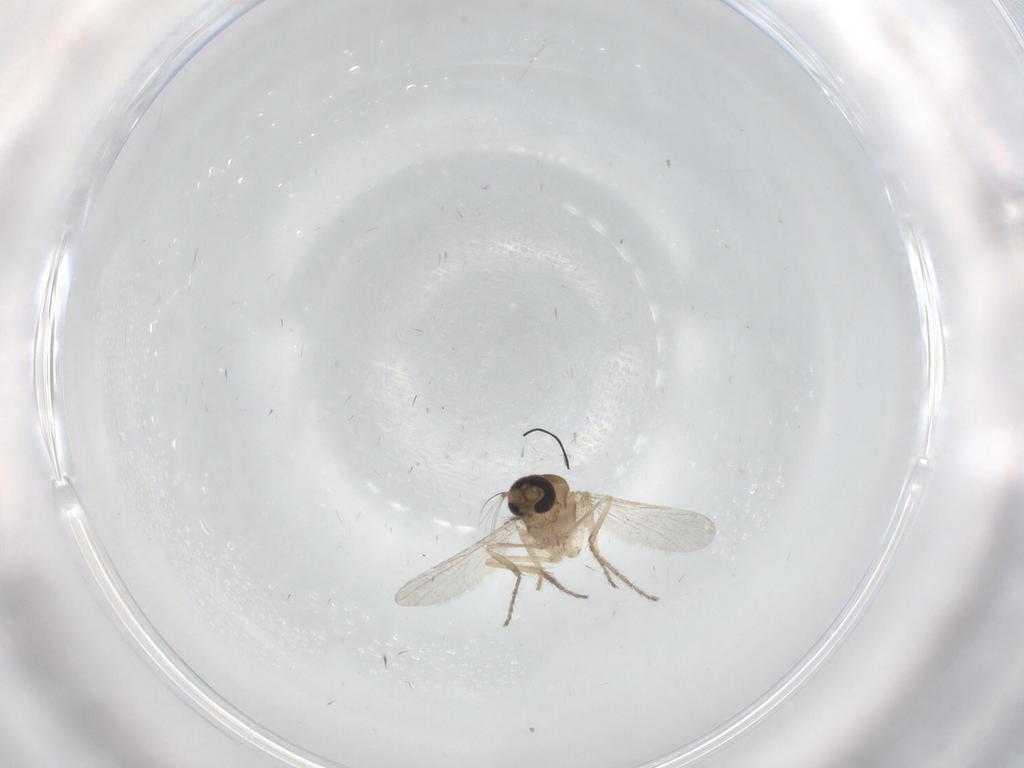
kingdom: Animalia
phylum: Arthropoda
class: Insecta
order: Diptera
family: Ceratopogonidae
